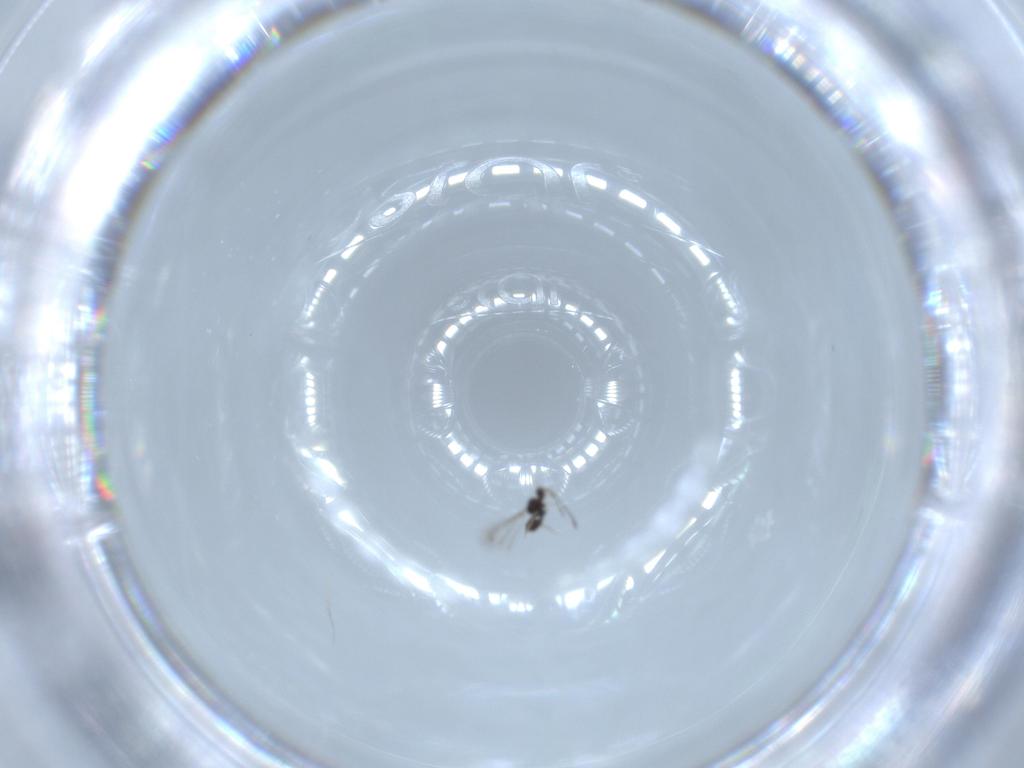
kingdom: Animalia
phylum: Arthropoda
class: Insecta
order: Hymenoptera
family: Mymaridae
